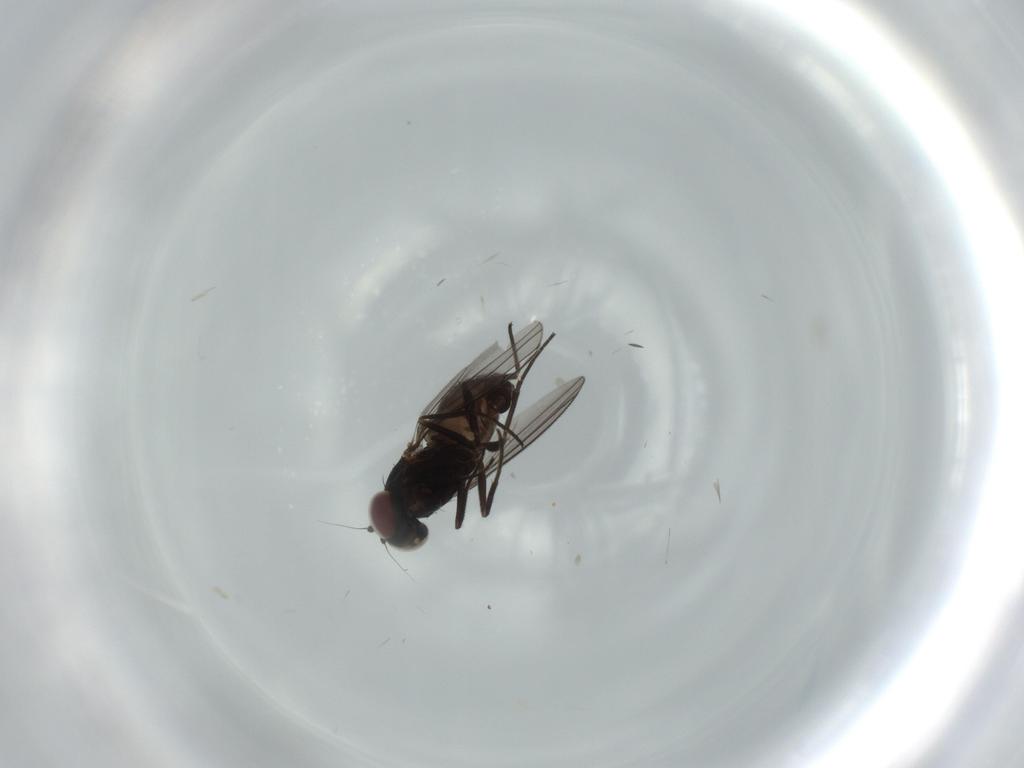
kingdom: Animalia
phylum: Arthropoda
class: Insecta
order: Diptera
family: Dolichopodidae
